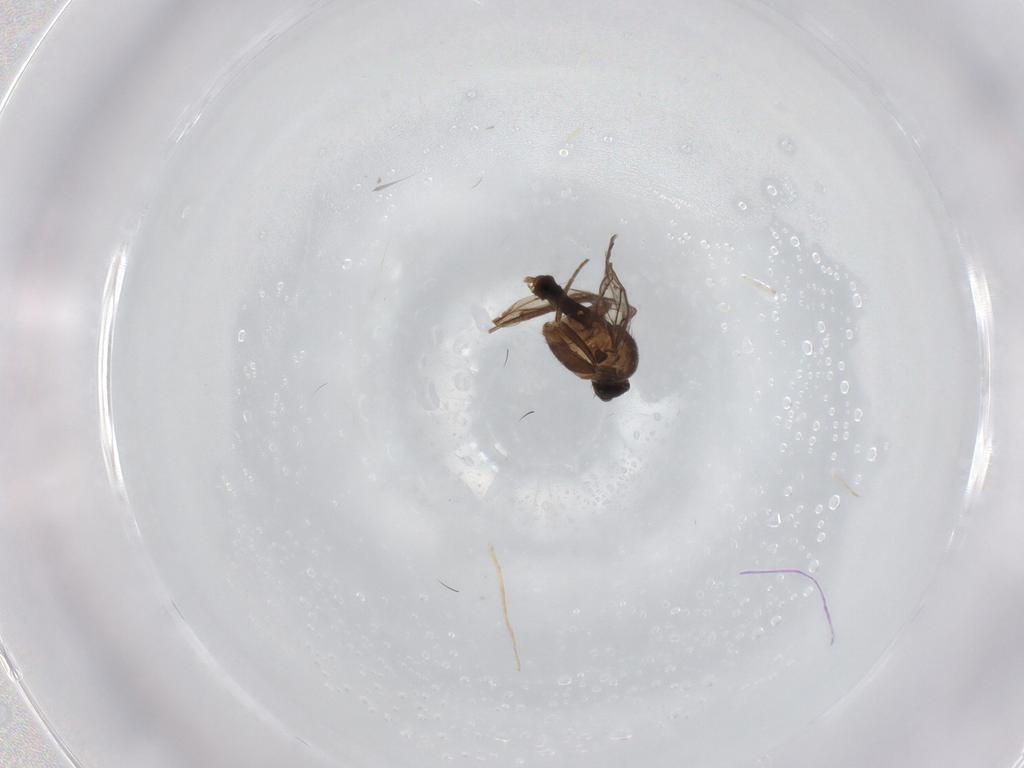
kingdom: Animalia
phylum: Arthropoda
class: Insecta
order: Diptera
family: Phoridae
